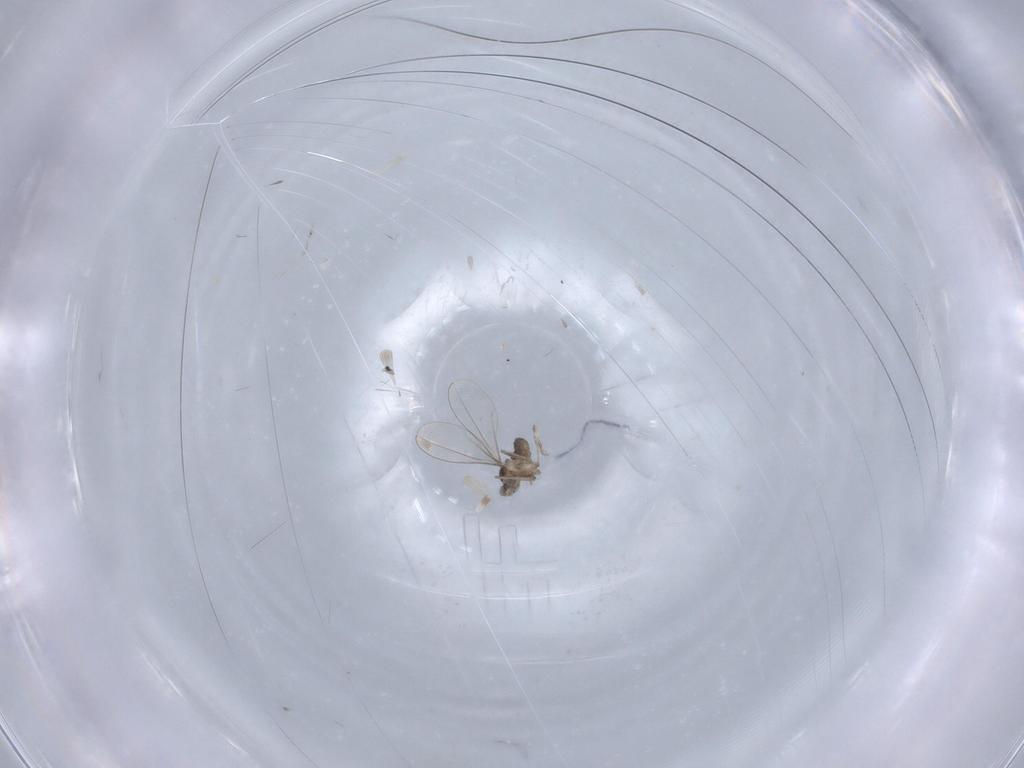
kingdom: Animalia
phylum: Arthropoda
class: Insecta
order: Diptera
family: Cecidomyiidae
